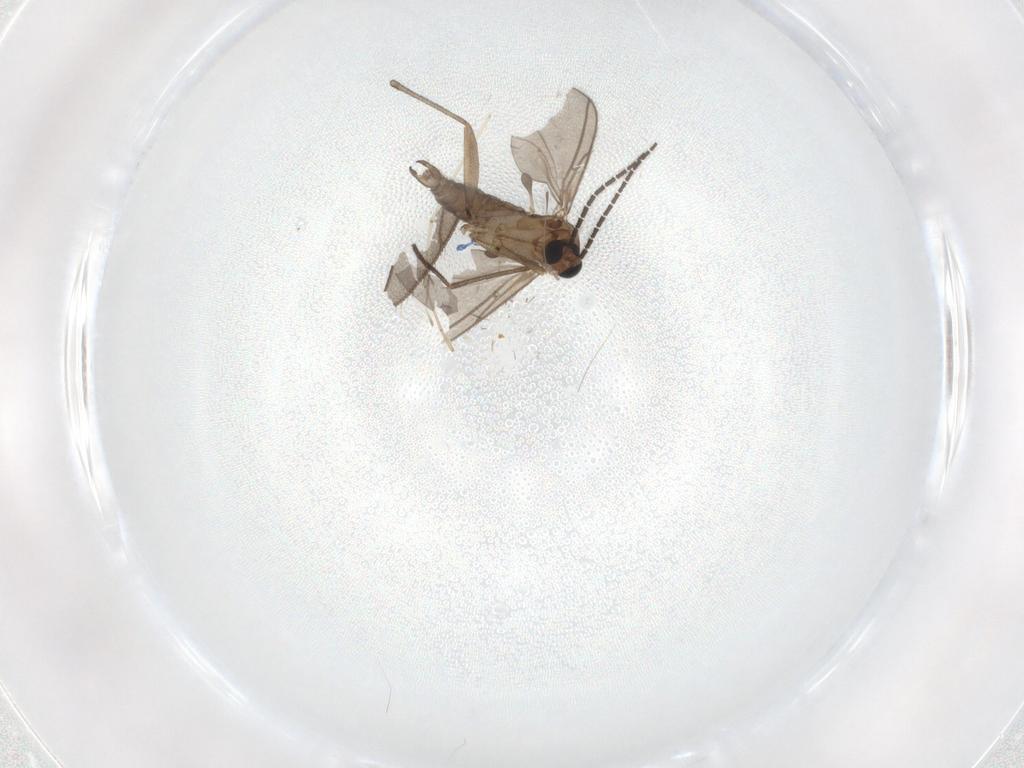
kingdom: Animalia
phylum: Arthropoda
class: Insecta
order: Diptera
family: Sciaridae
